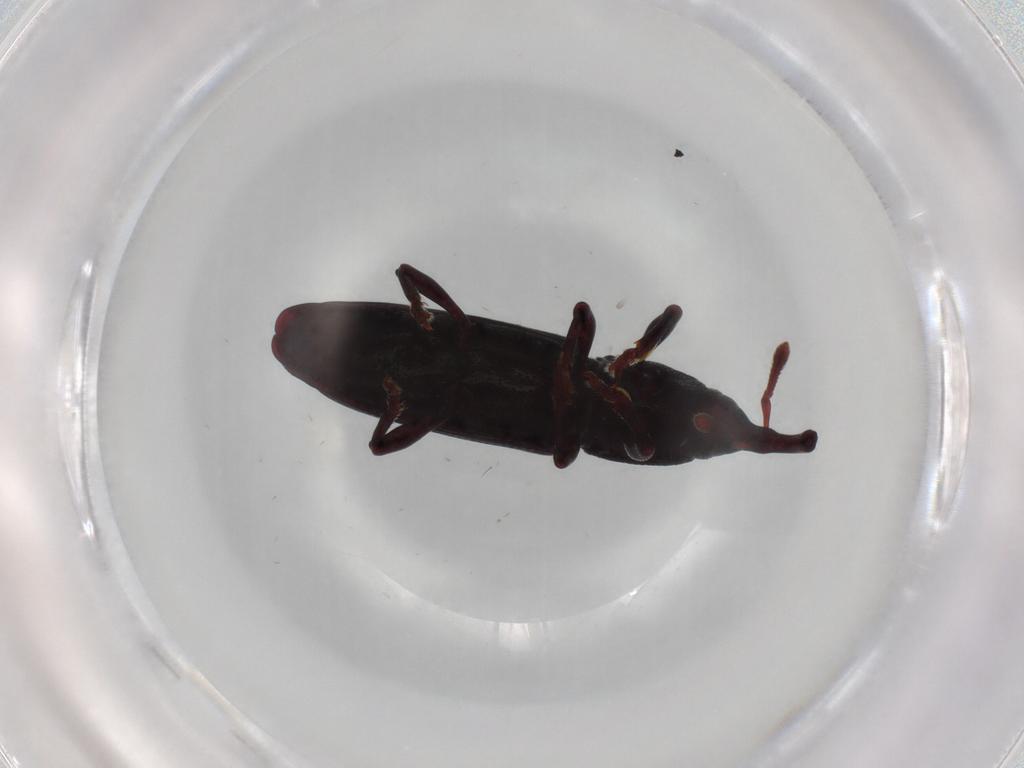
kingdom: Animalia
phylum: Arthropoda
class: Insecta
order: Coleoptera
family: Curculionidae
